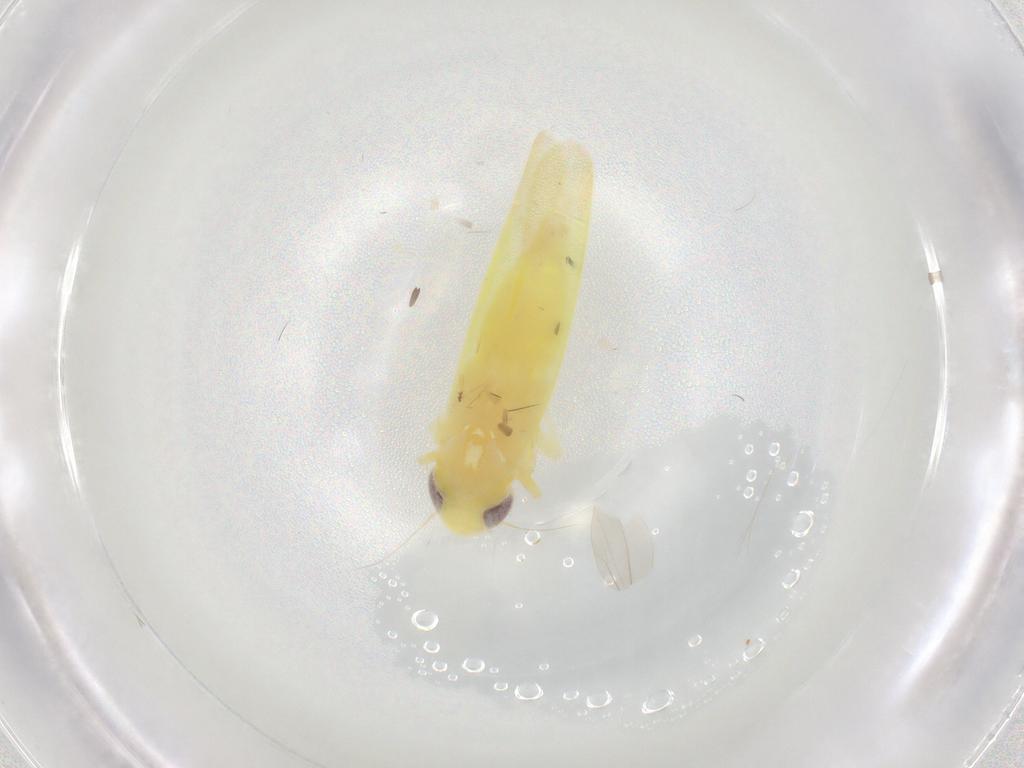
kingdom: Animalia
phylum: Arthropoda
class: Insecta
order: Hemiptera
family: Cicadellidae
